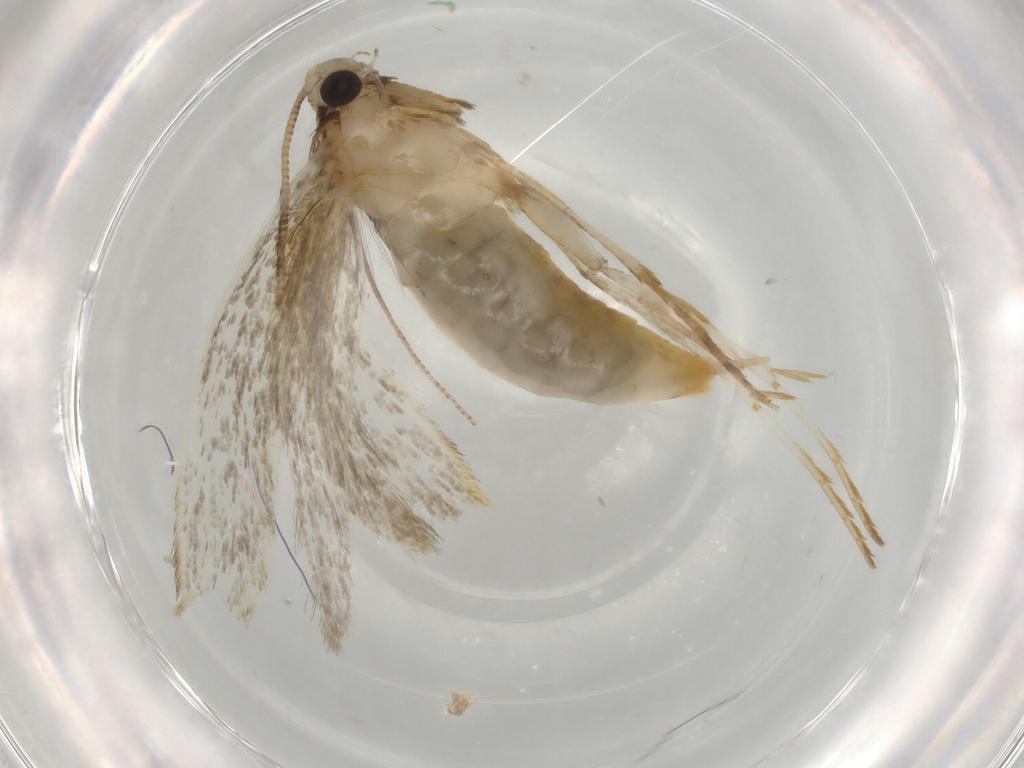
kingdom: Animalia
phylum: Arthropoda
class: Insecta
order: Lepidoptera
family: Tineidae
